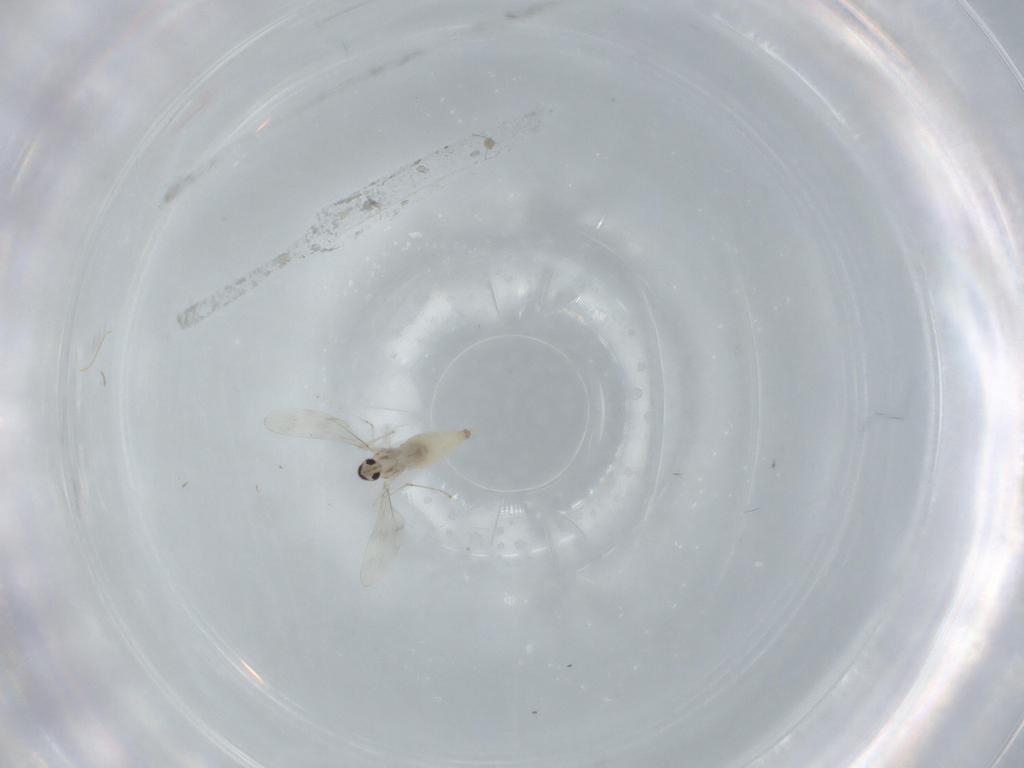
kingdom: Animalia
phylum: Arthropoda
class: Insecta
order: Diptera
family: Cecidomyiidae
